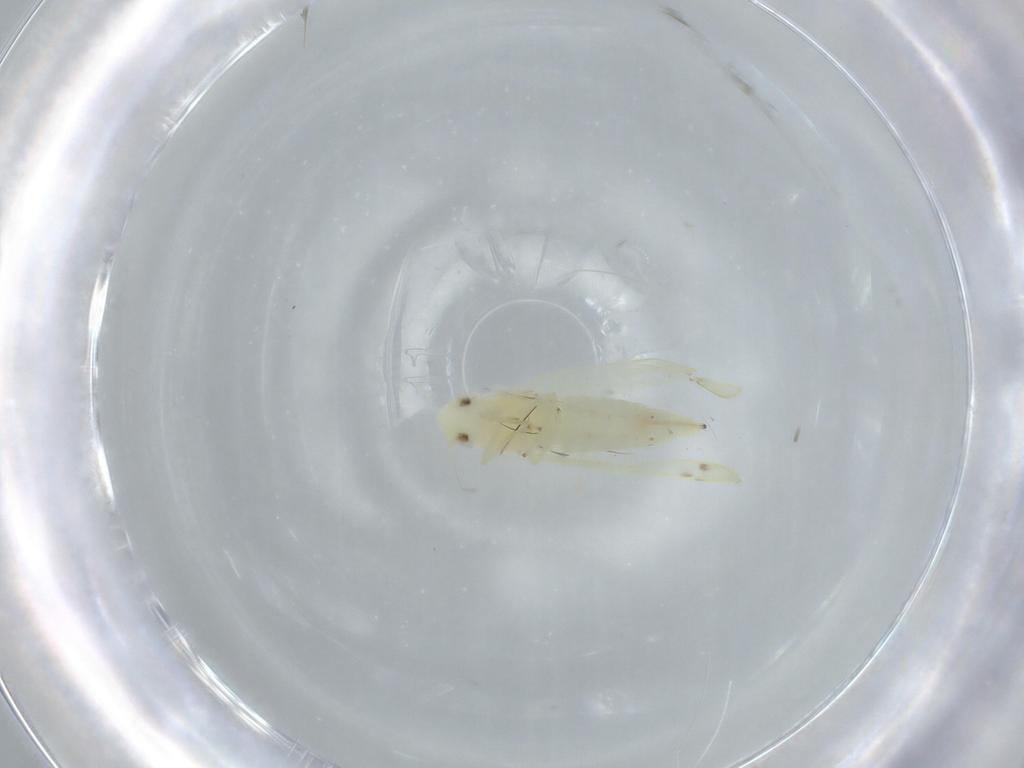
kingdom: Animalia
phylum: Arthropoda
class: Insecta
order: Hemiptera
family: Cicadellidae
